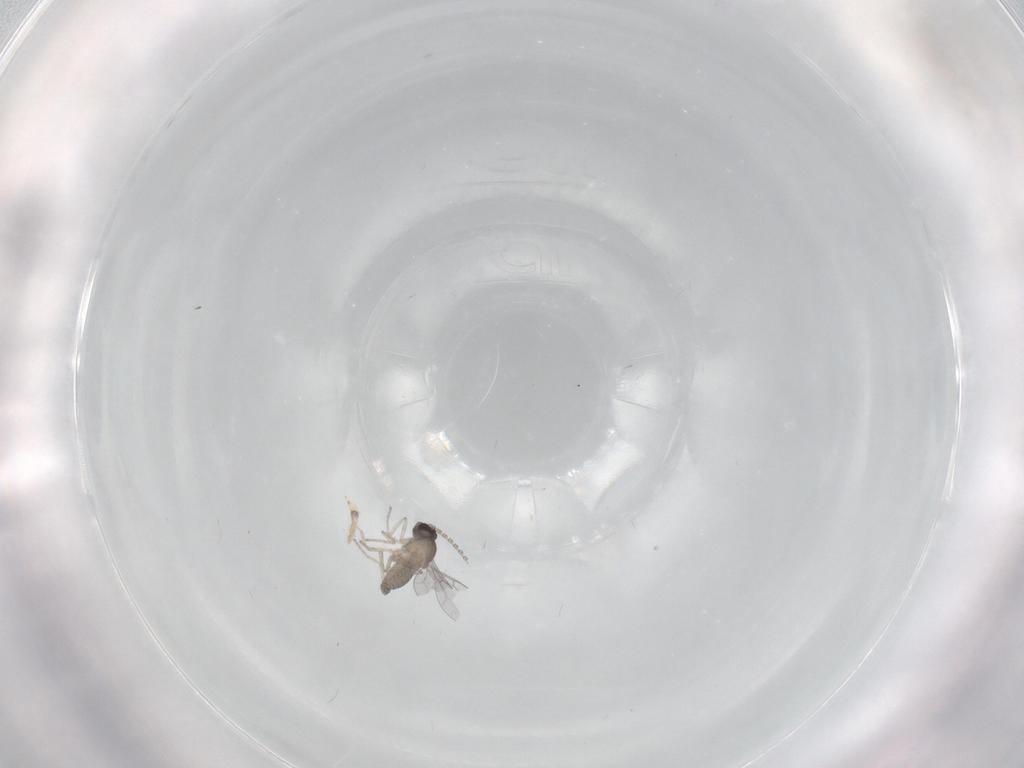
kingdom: Animalia
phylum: Arthropoda
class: Insecta
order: Diptera
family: Cecidomyiidae
